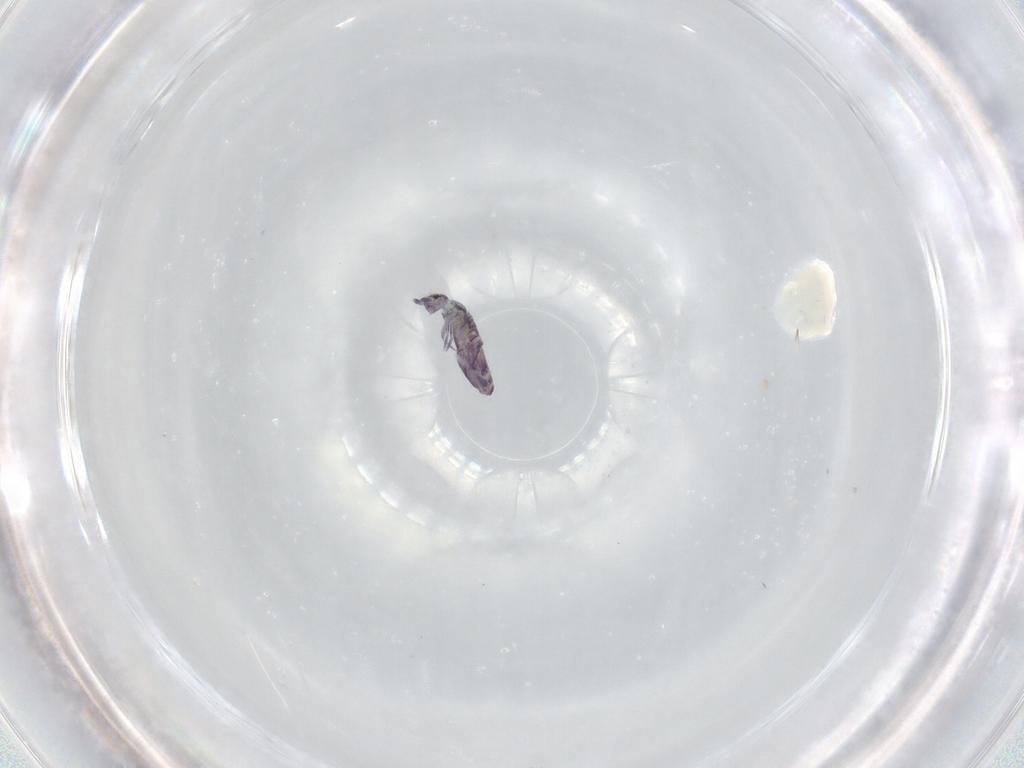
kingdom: Animalia
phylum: Arthropoda
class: Collembola
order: Entomobryomorpha
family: Entomobryidae
